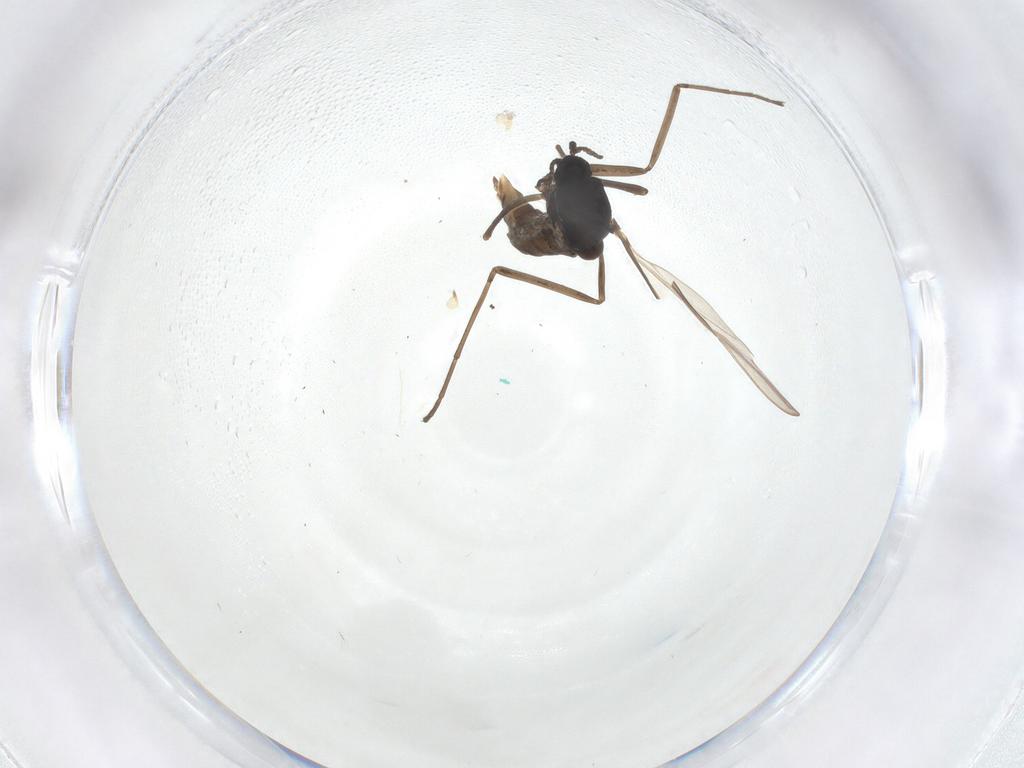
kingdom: Animalia
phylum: Arthropoda
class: Insecta
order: Diptera
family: Cecidomyiidae
